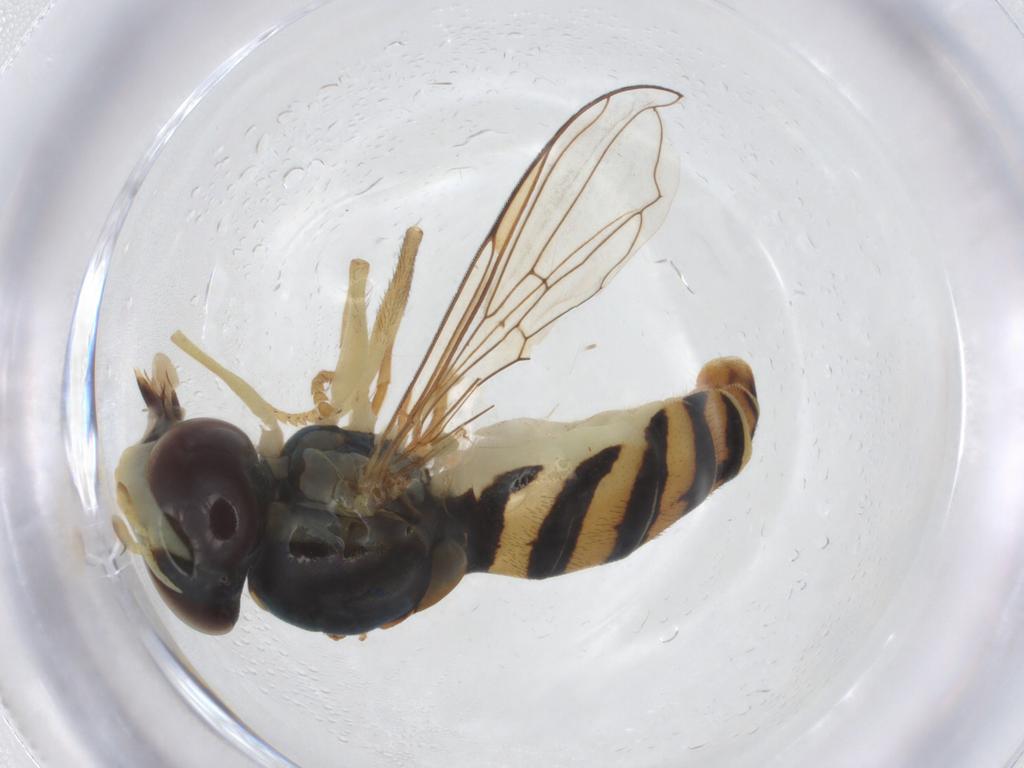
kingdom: Animalia
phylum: Arthropoda
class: Insecta
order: Diptera
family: Syrphidae
